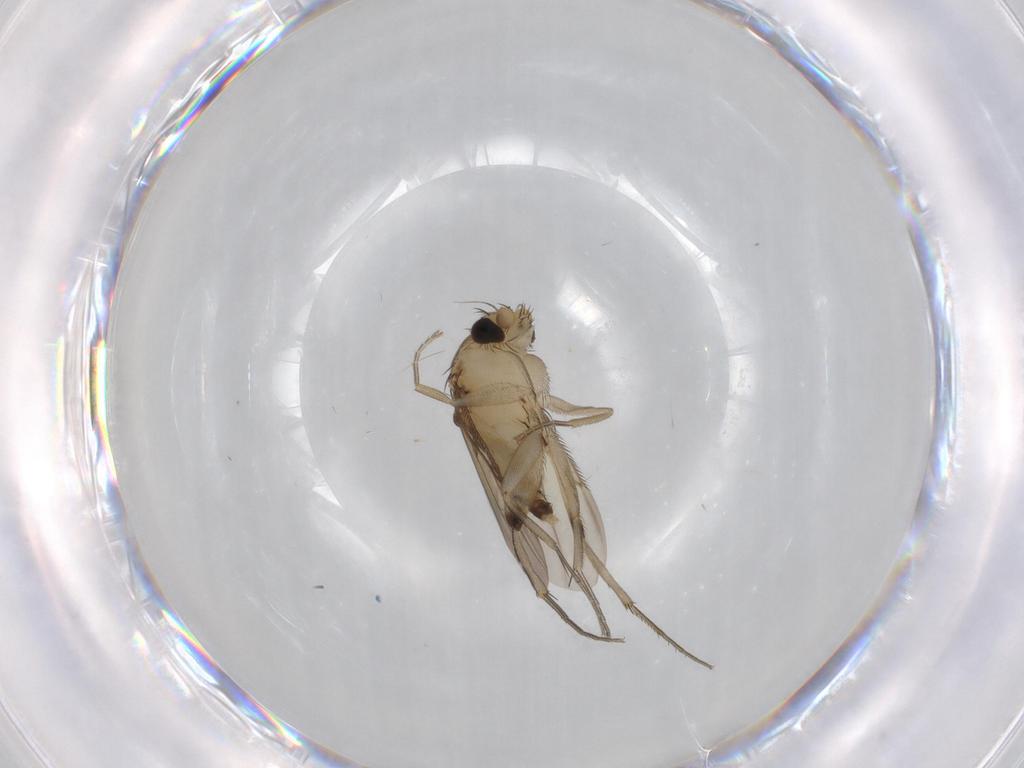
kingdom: Animalia
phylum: Arthropoda
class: Insecta
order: Diptera
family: Phoridae
